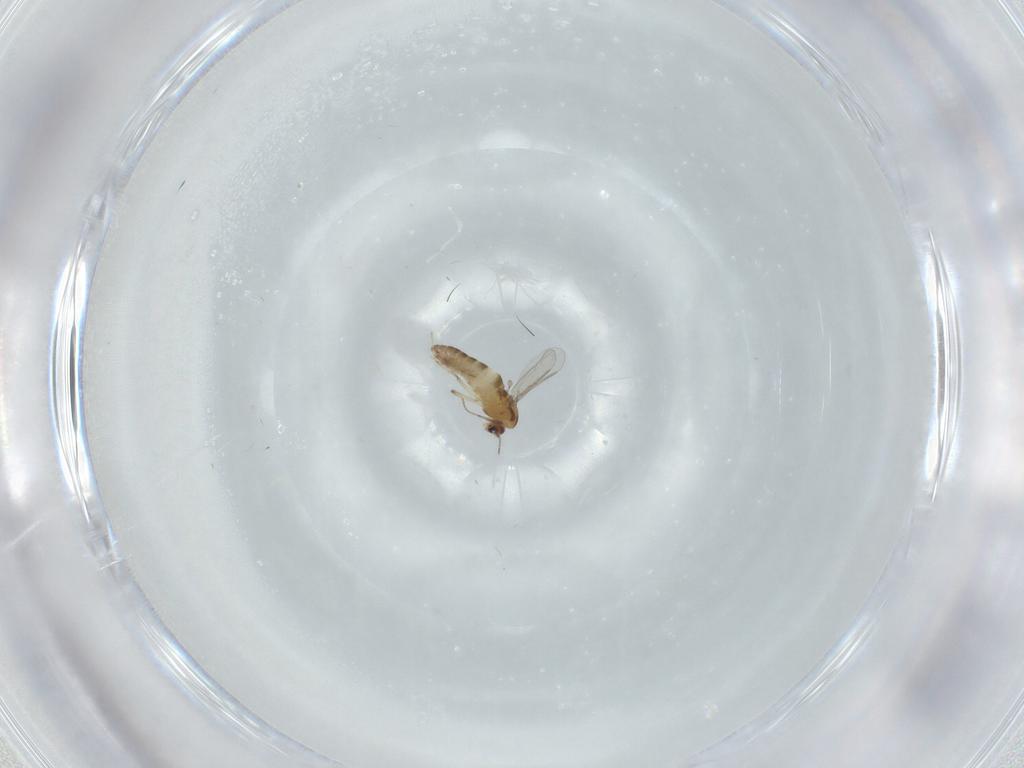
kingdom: Animalia
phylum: Arthropoda
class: Insecta
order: Diptera
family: Chironomidae
